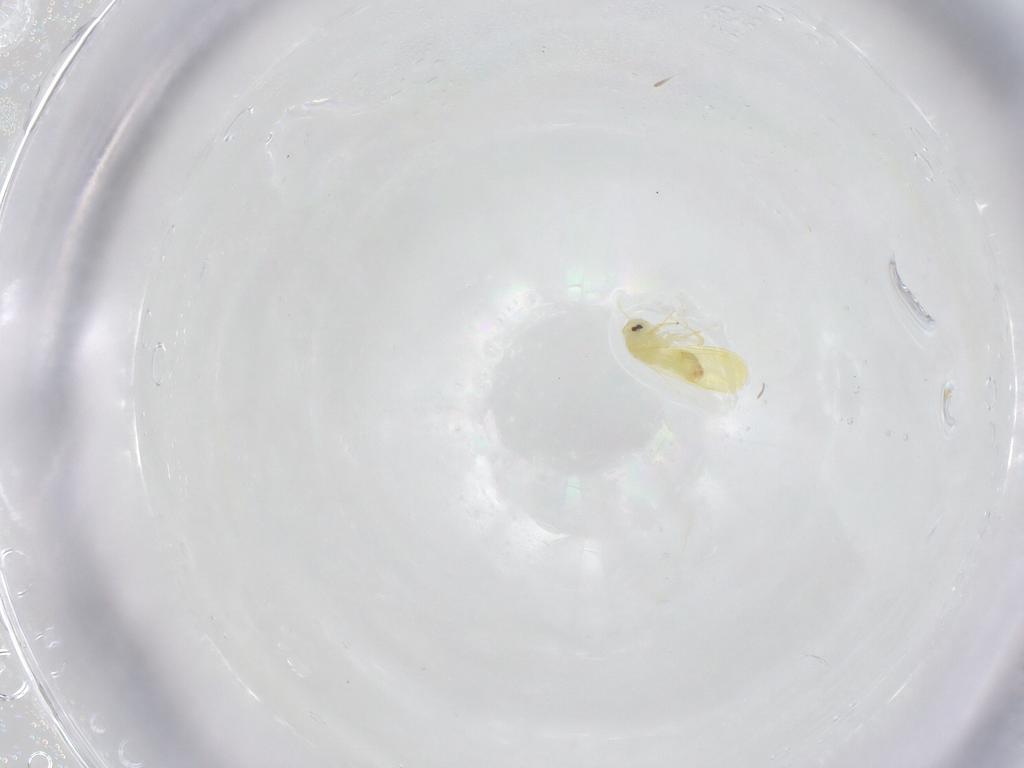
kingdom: Animalia
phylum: Arthropoda
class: Insecta
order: Hemiptera
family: Aleyrodidae
